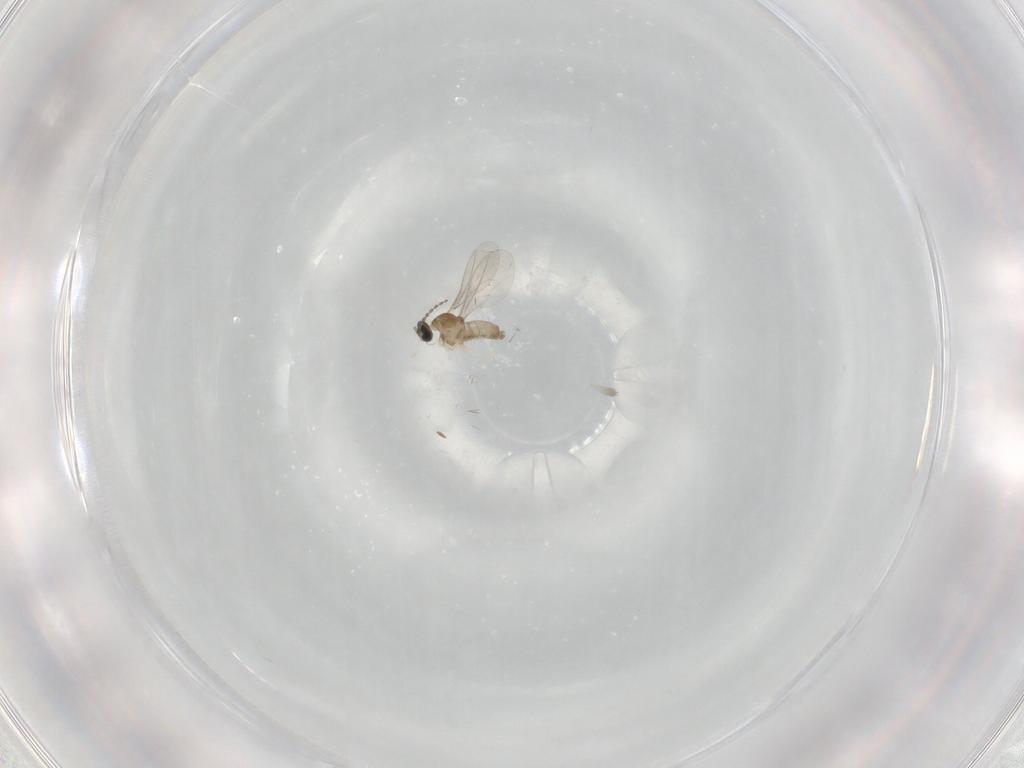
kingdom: Animalia
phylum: Arthropoda
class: Insecta
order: Diptera
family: Cecidomyiidae
